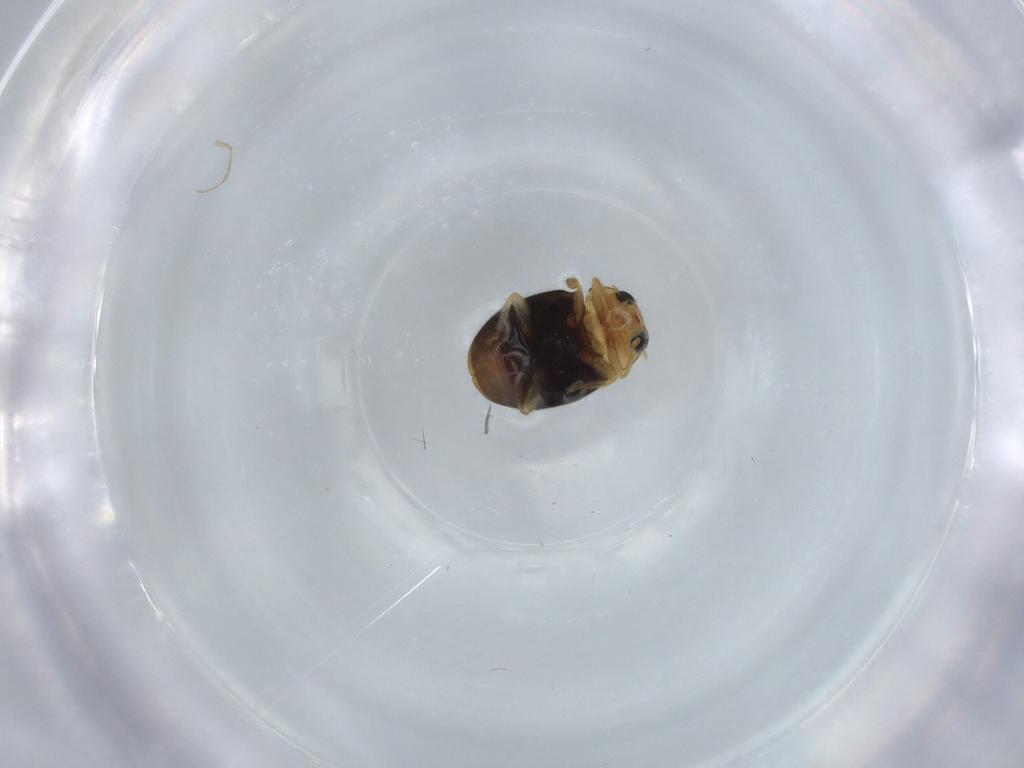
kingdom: Animalia
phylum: Arthropoda
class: Insecta
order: Coleoptera
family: Coccinellidae
